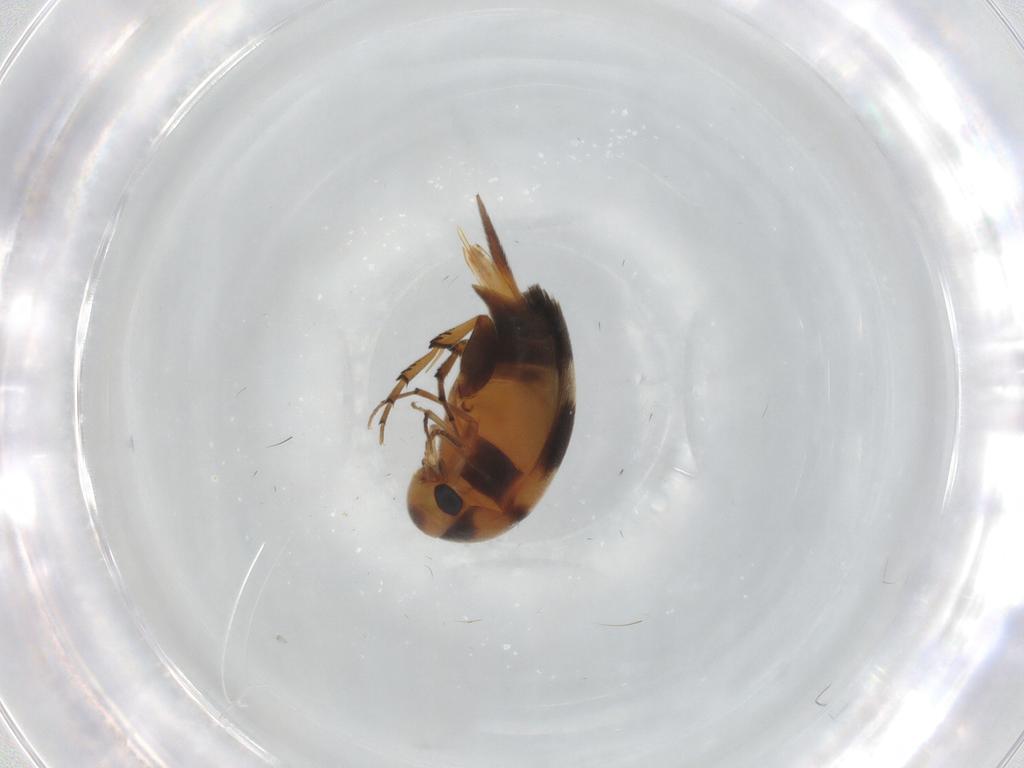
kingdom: Animalia
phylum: Arthropoda
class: Insecta
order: Coleoptera
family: Mordellidae
